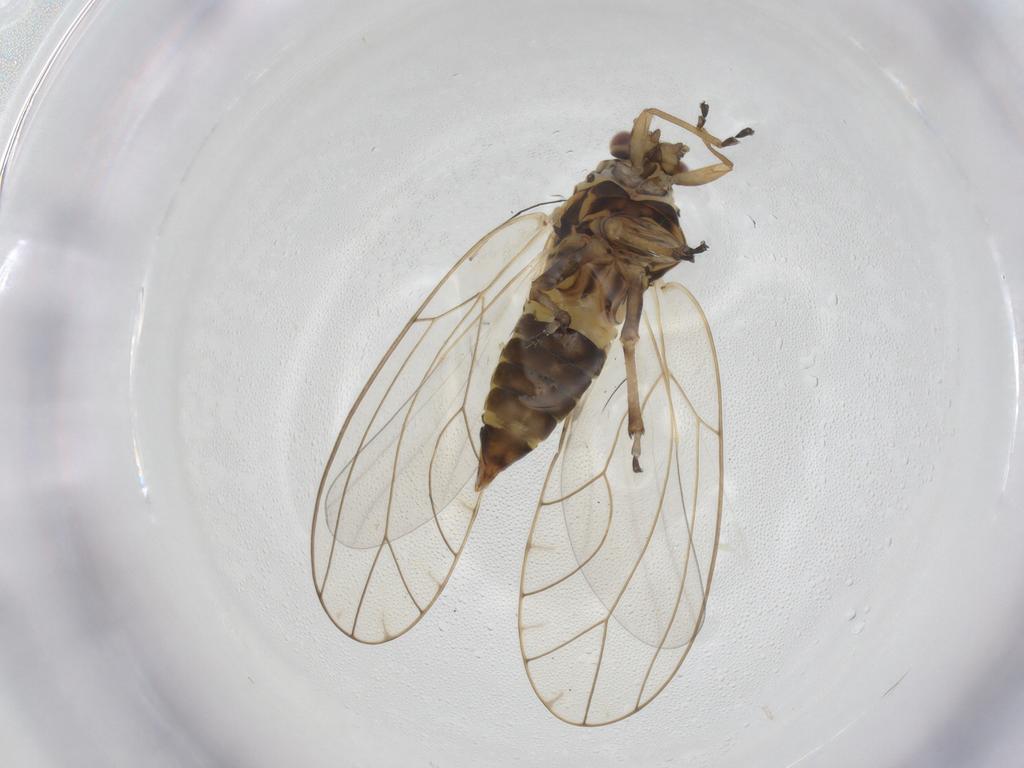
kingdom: Animalia
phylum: Arthropoda
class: Insecta
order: Hemiptera
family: Triozidae
